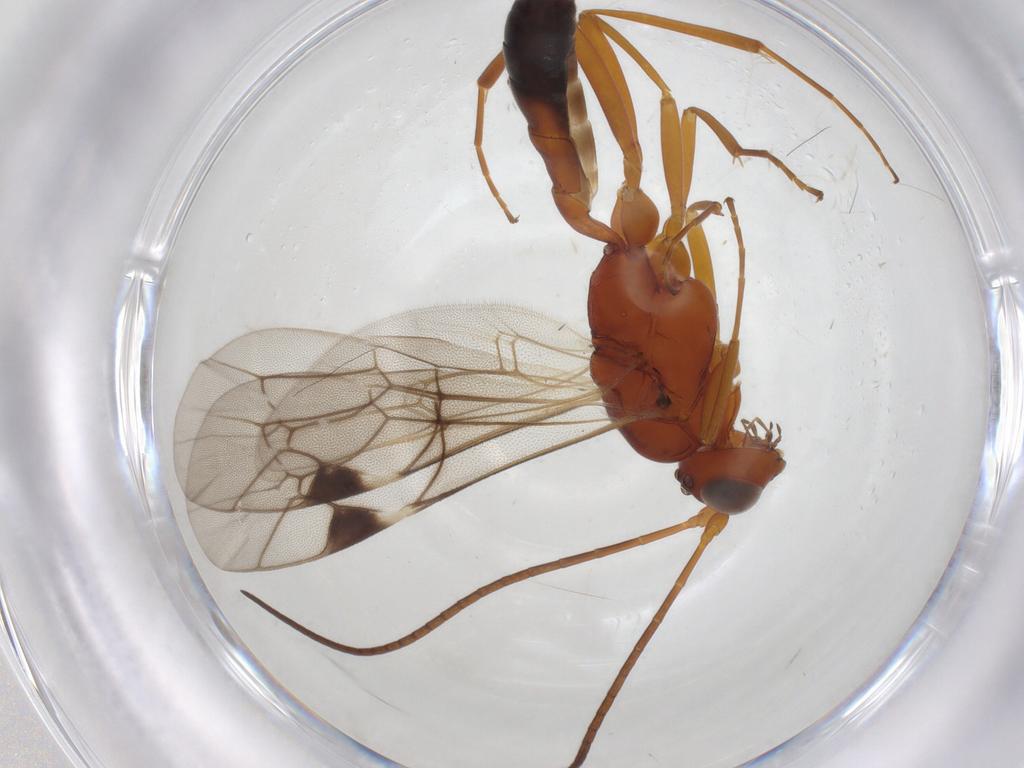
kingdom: Animalia
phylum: Arthropoda
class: Insecta
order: Hymenoptera
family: Ichneumonidae
